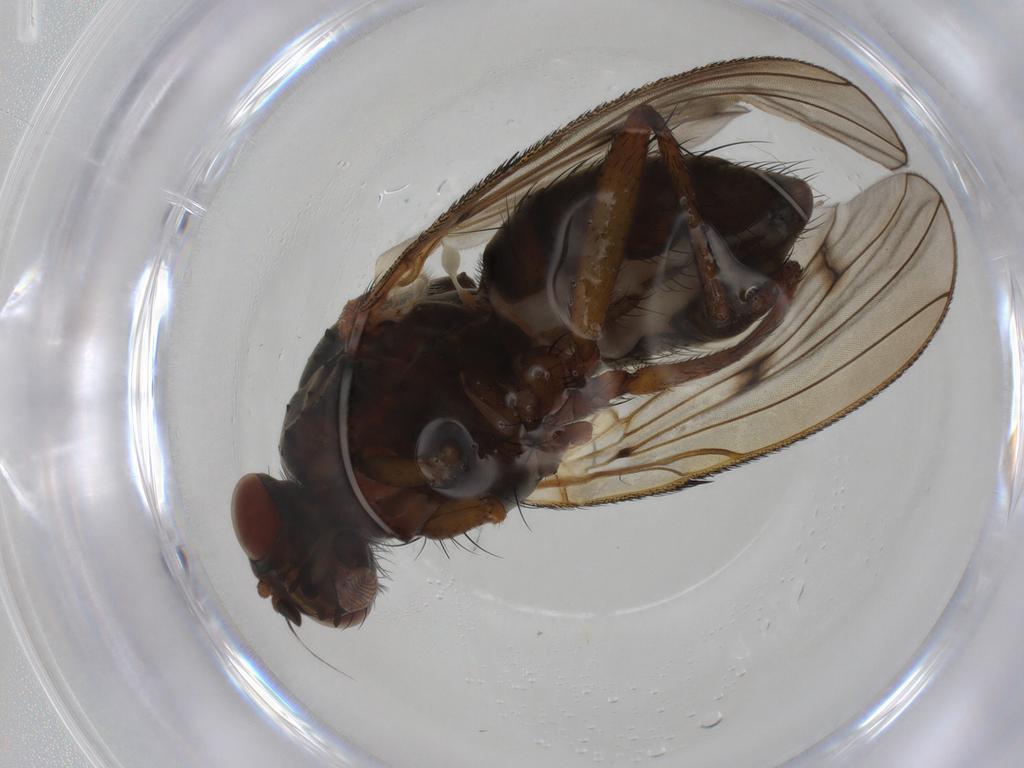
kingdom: Animalia
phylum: Arthropoda
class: Insecta
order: Diptera
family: Anthomyiidae
